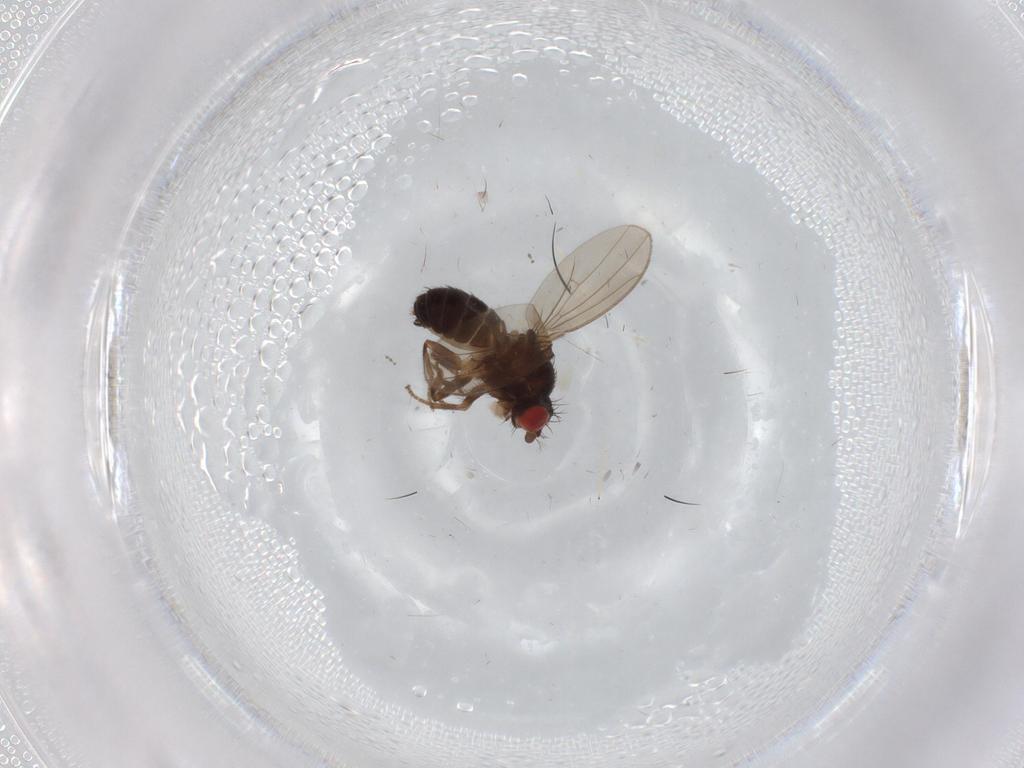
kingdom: Animalia
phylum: Arthropoda
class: Insecta
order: Diptera
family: Drosophilidae
